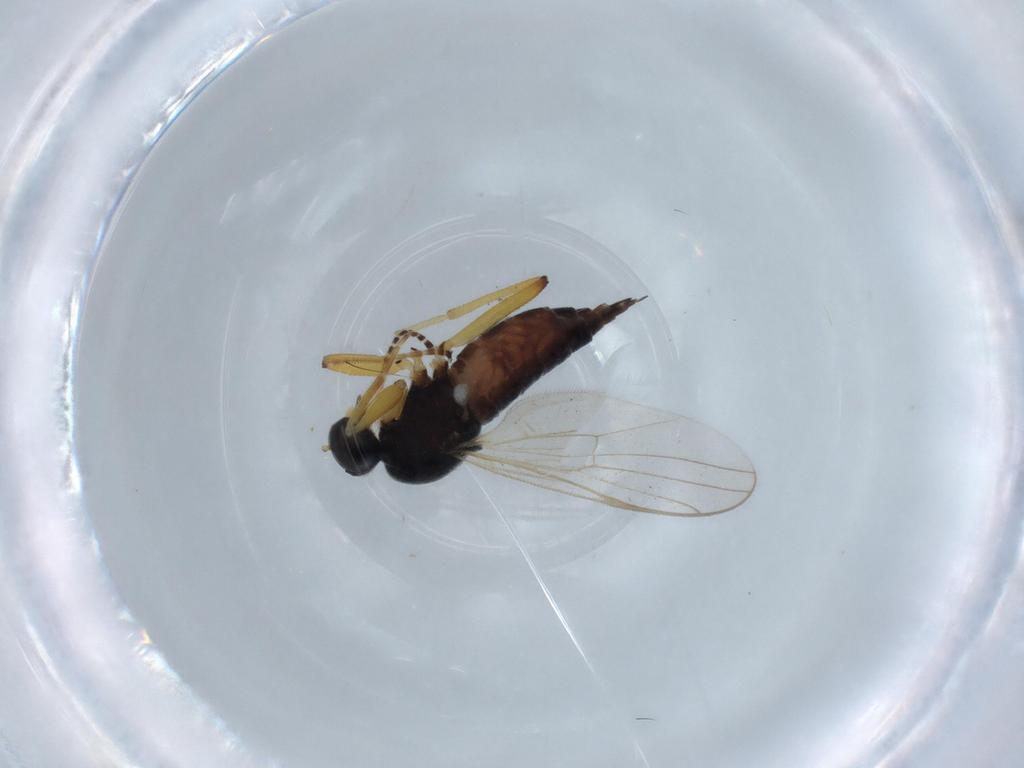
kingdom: Animalia
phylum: Arthropoda
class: Insecta
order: Diptera
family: Hybotidae
